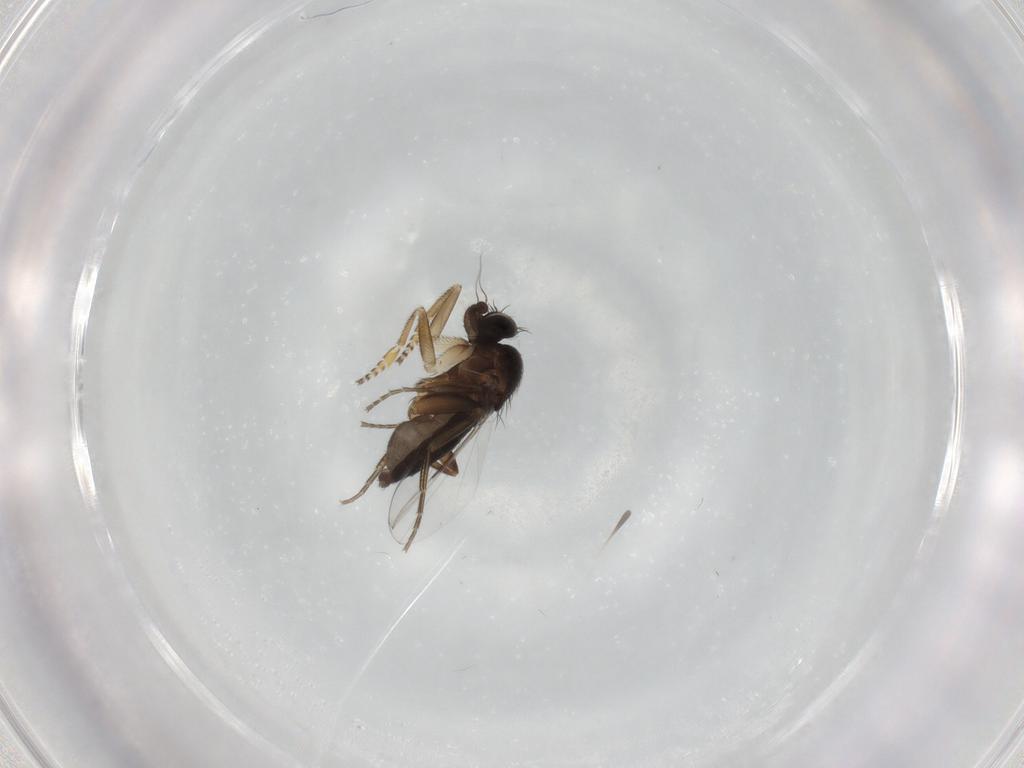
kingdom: Animalia
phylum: Arthropoda
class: Insecta
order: Diptera
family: Phoridae
